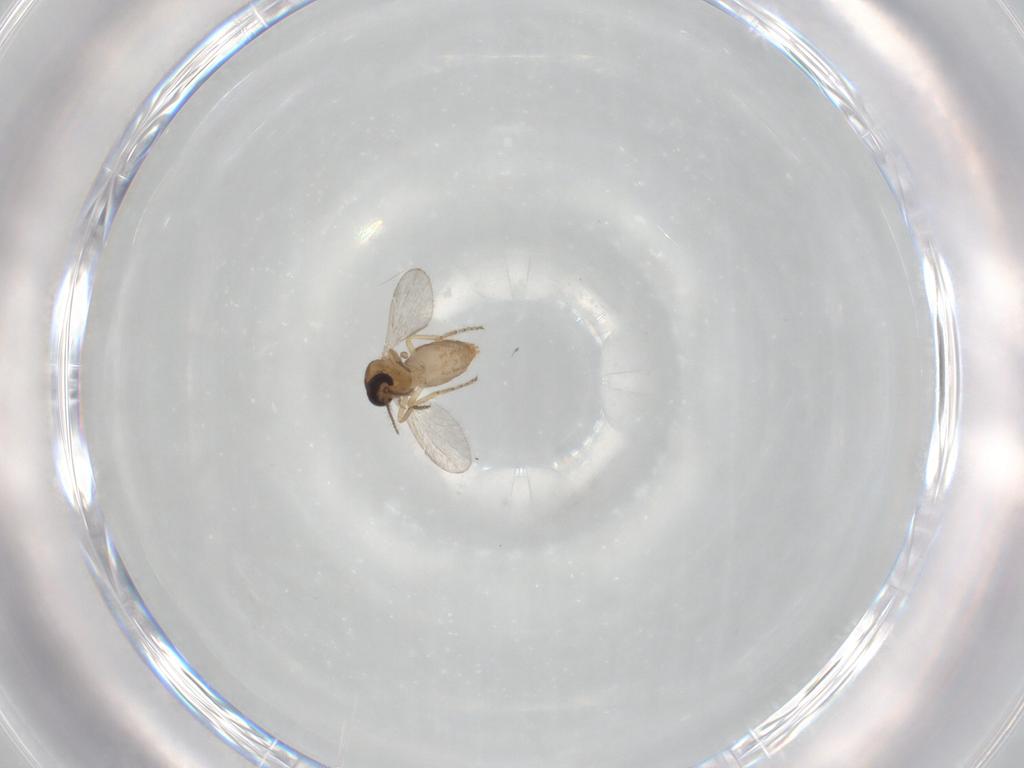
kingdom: Animalia
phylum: Arthropoda
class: Insecta
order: Diptera
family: Ceratopogonidae
